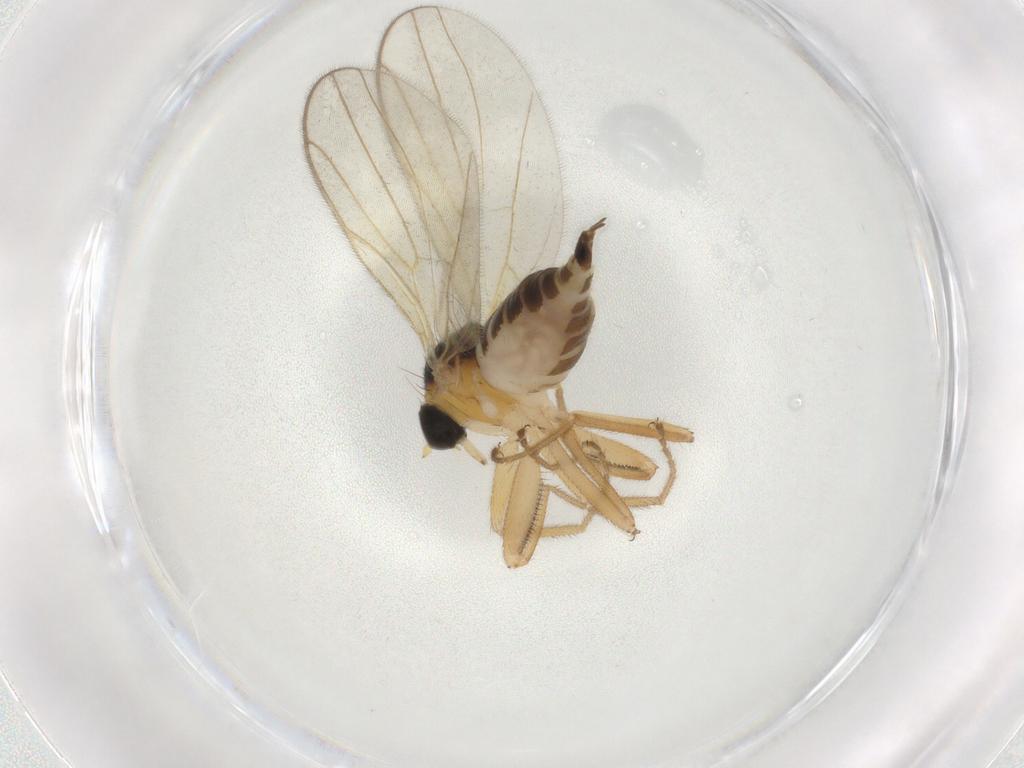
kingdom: Animalia
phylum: Arthropoda
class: Insecta
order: Diptera
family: Hybotidae
